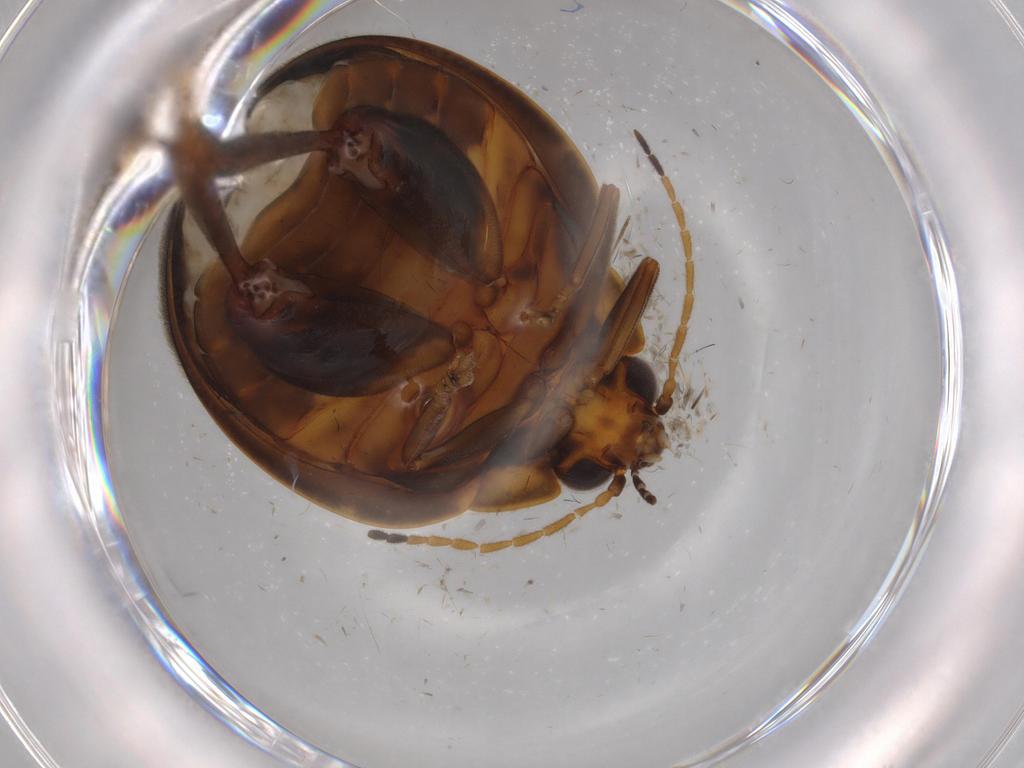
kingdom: Animalia
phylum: Arthropoda
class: Insecta
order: Coleoptera
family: Scirtidae
